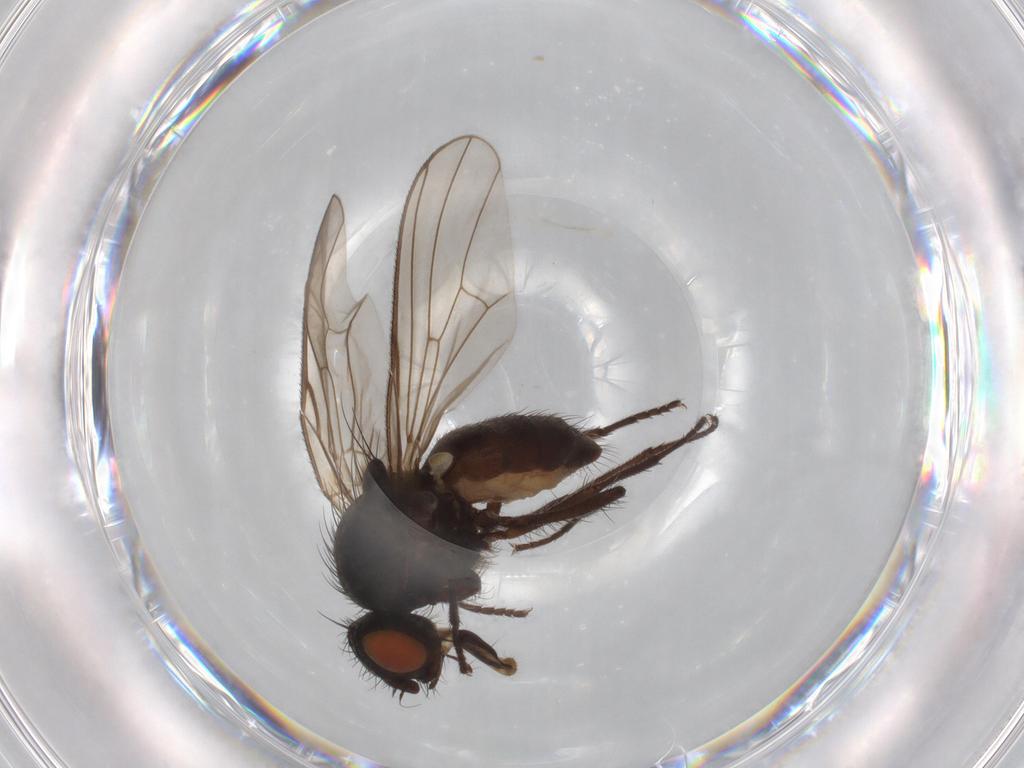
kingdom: Animalia
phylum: Arthropoda
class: Insecta
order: Diptera
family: Anthomyiidae
